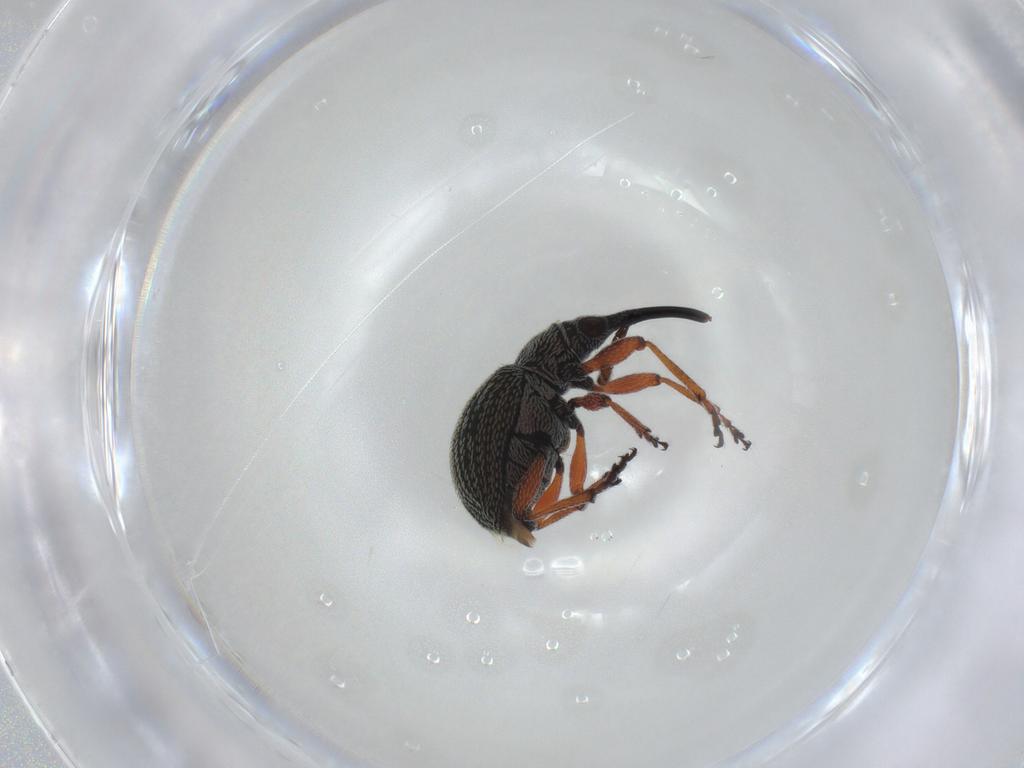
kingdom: Animalia
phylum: Arthropoda
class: Insecta
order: Coleoptera
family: Brentidae
